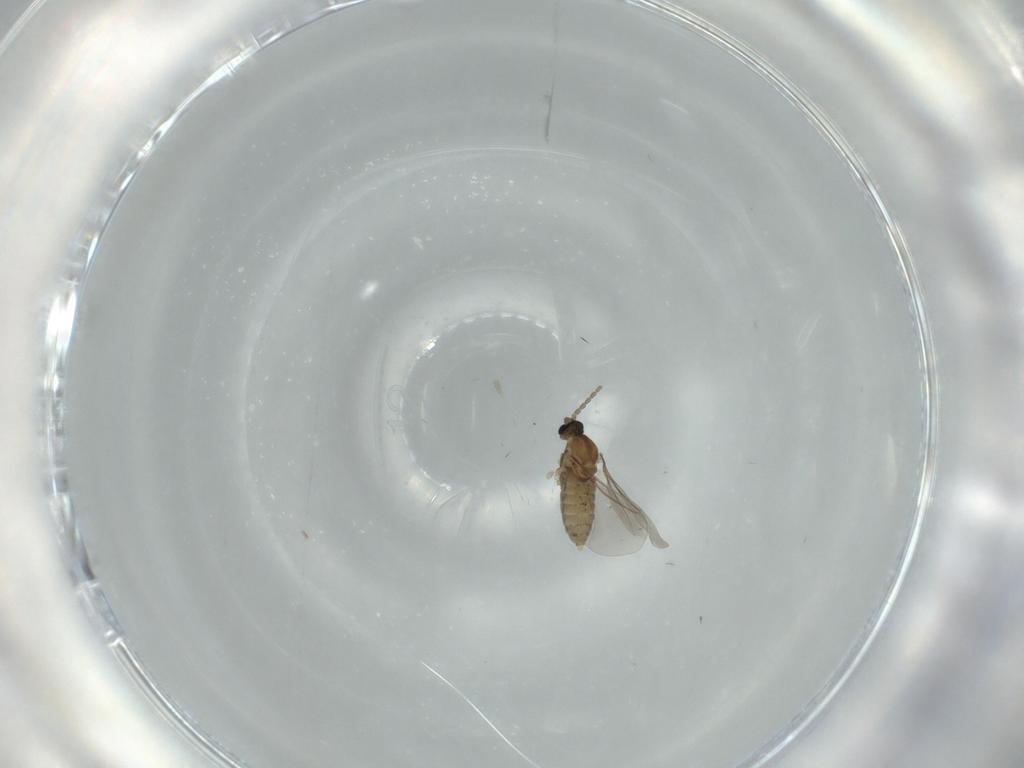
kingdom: Animalia
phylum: Arthropoda
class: Insecta
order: Diptera
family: Cecidomyiidae
